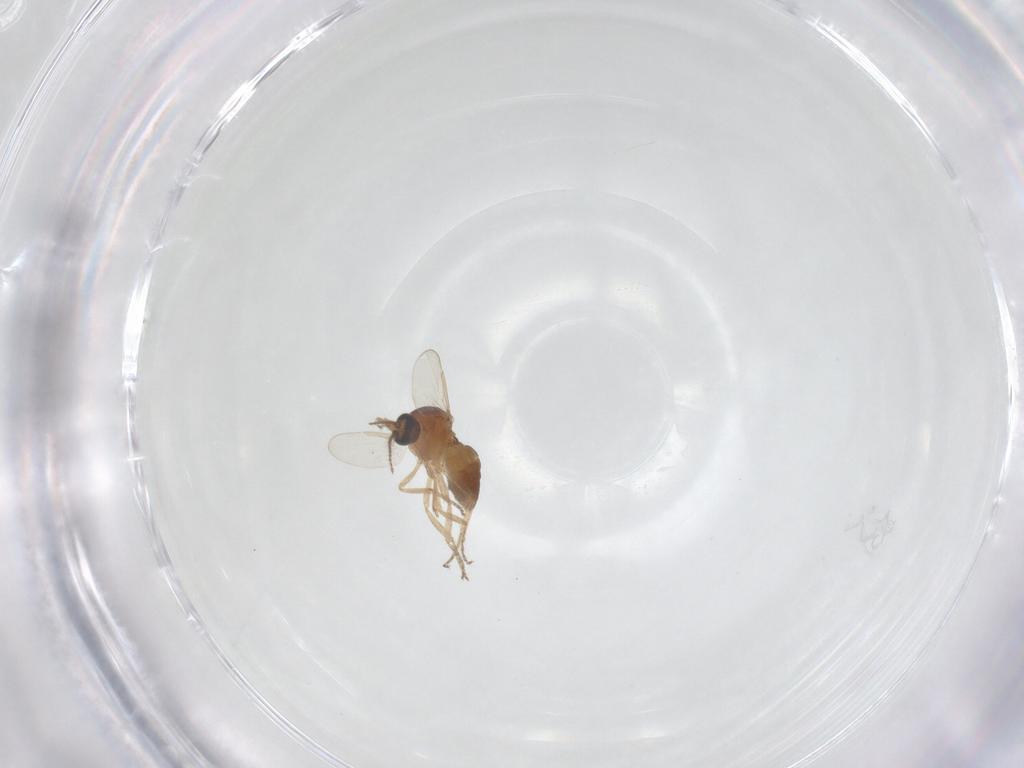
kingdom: Animalia
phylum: Arthropoda
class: Insecta
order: Diptera
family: Ceratopogonidae
